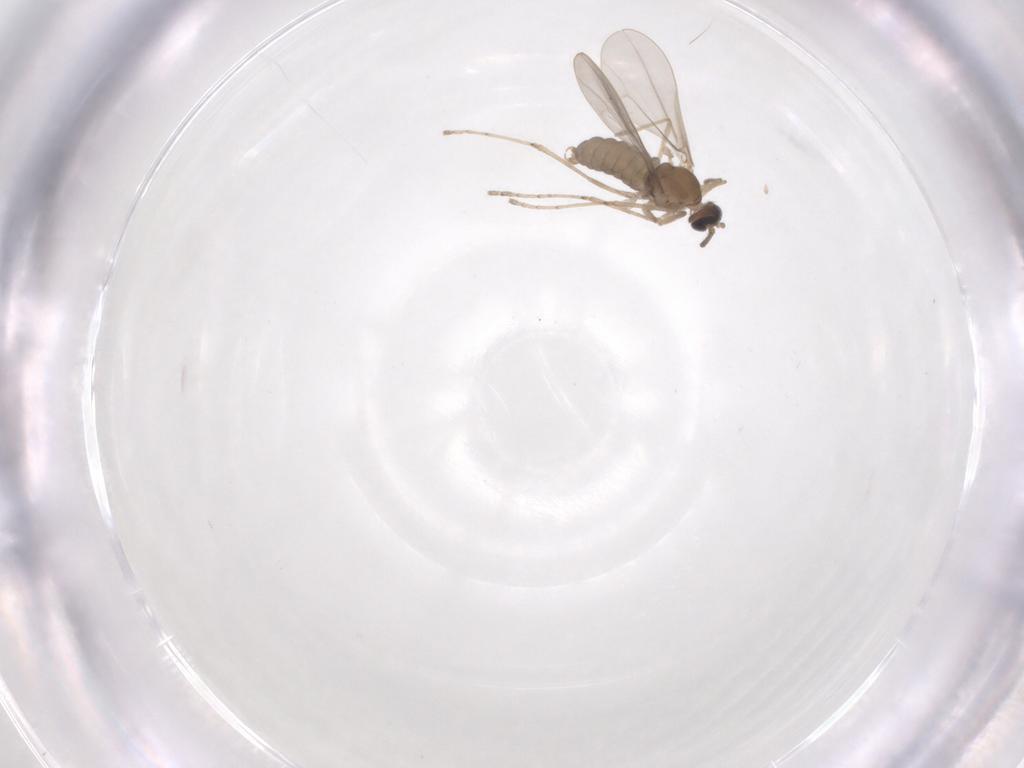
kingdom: Animalia
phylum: Arthropoda
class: Insecta
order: Diptera
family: Cecidomyiidae
